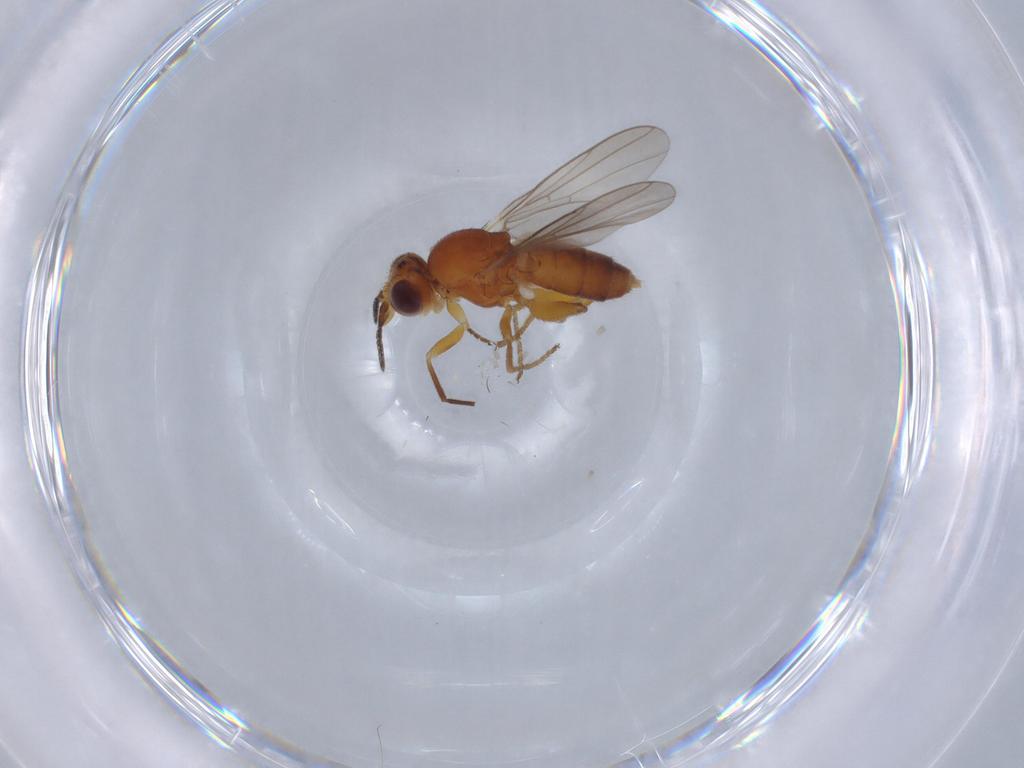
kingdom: Animalia
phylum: Arthropoda
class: Insecta
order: Diptera
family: Chloropidae
